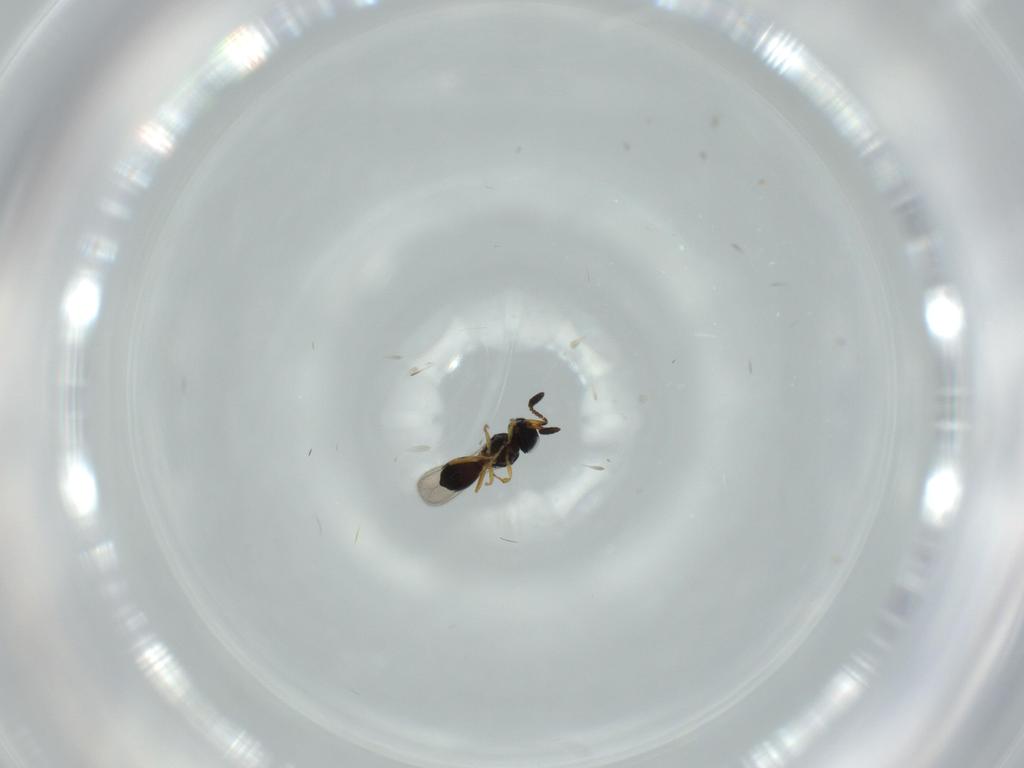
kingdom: Animalia
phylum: Arthropoda
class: Insecta
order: Hymenoptera
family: Scelionidae
